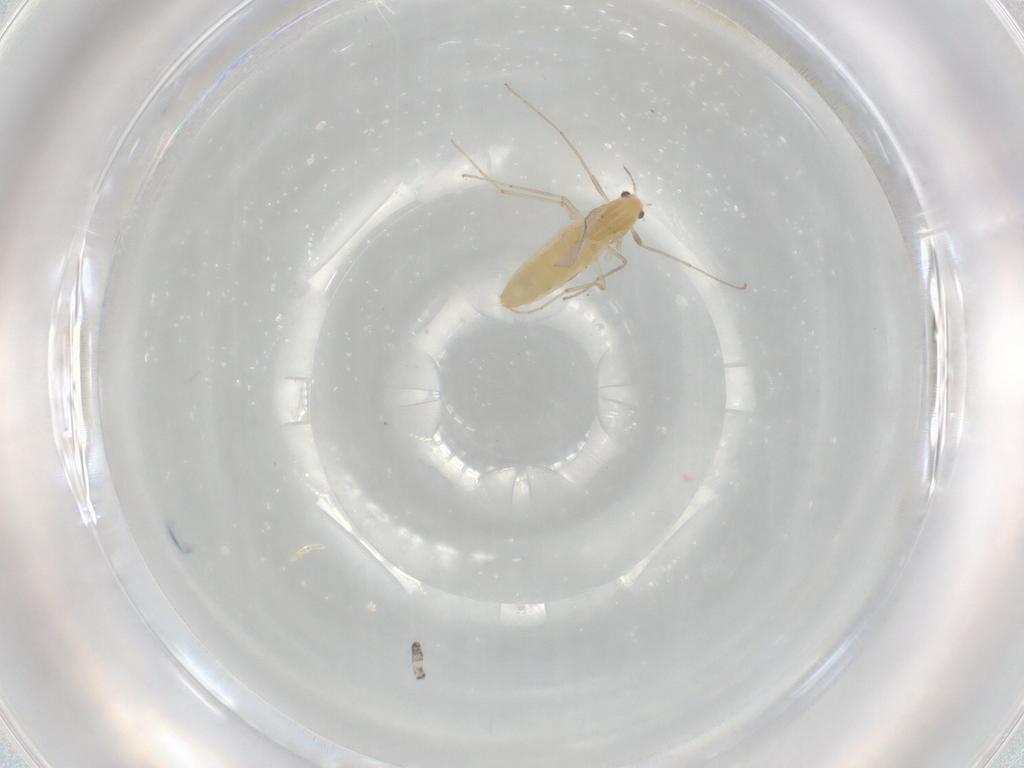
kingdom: Animalia
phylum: Arthropoda
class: Insecta
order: Diptera
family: Chironomidae
